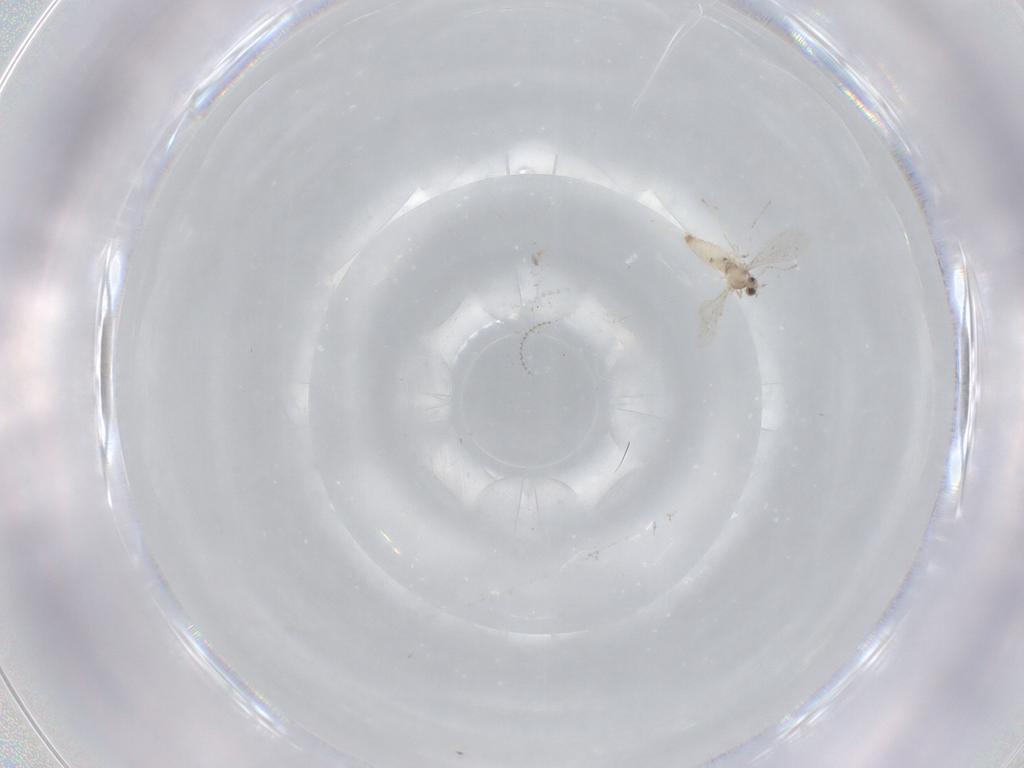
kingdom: Animalia
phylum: Arthropoda
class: Insecta
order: Diptera
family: Cecidomyiidae
